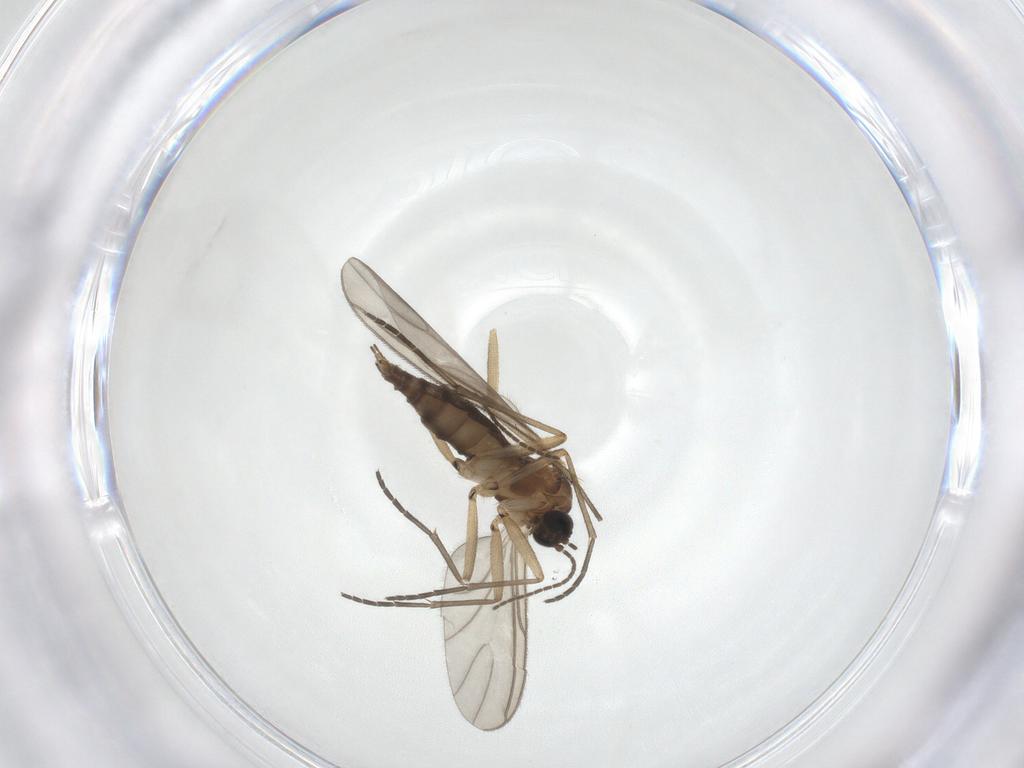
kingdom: Animalia
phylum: Arthropoda
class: Insecta
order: Diptera
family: Sciaridae
